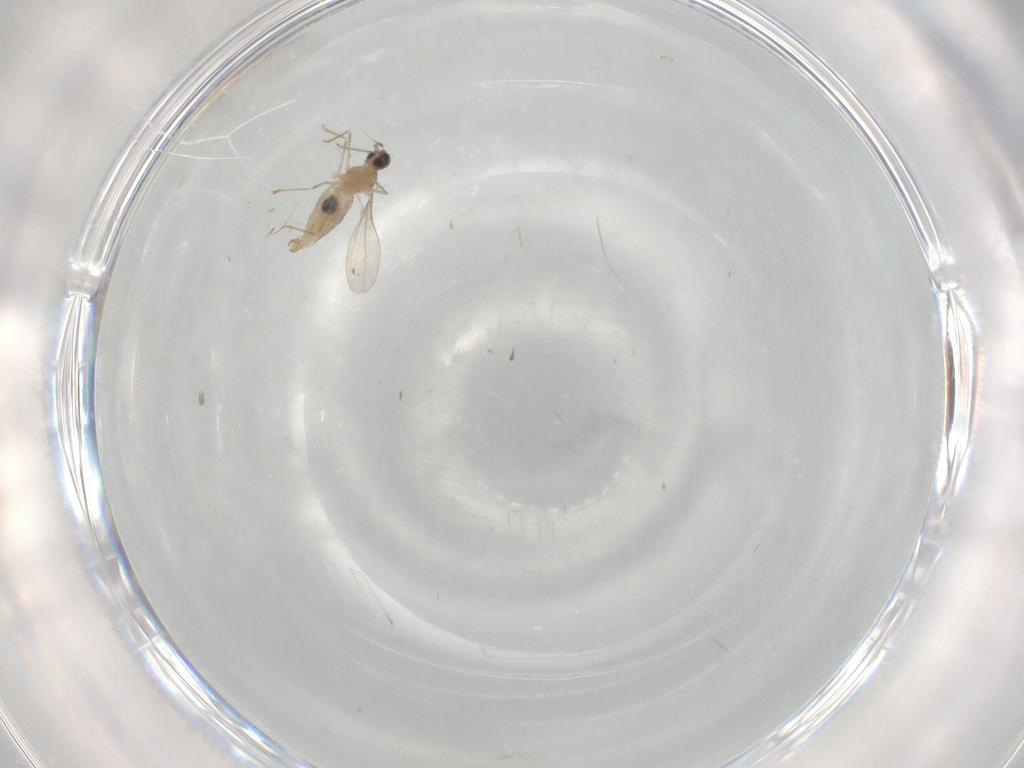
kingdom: Animalia
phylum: Arthropoda
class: Insecta
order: Diptera
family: Cecidomyiidae
